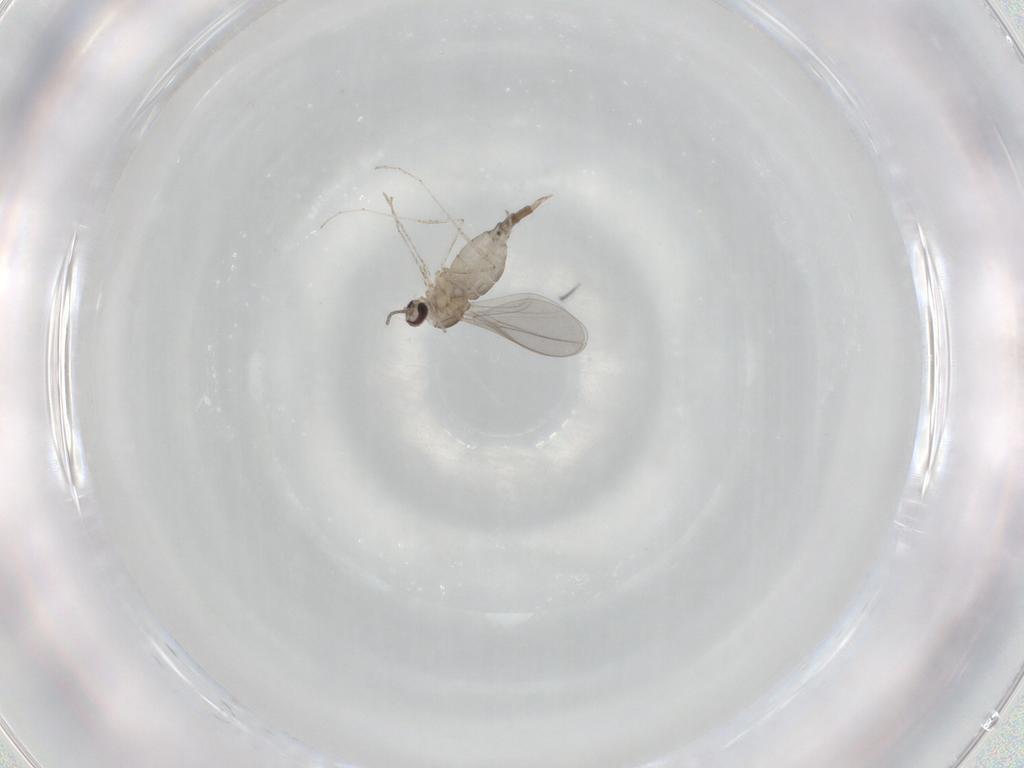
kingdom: Animalia
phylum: Arthropoda
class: Insecta
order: Diptera
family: Cecidomyiidae
